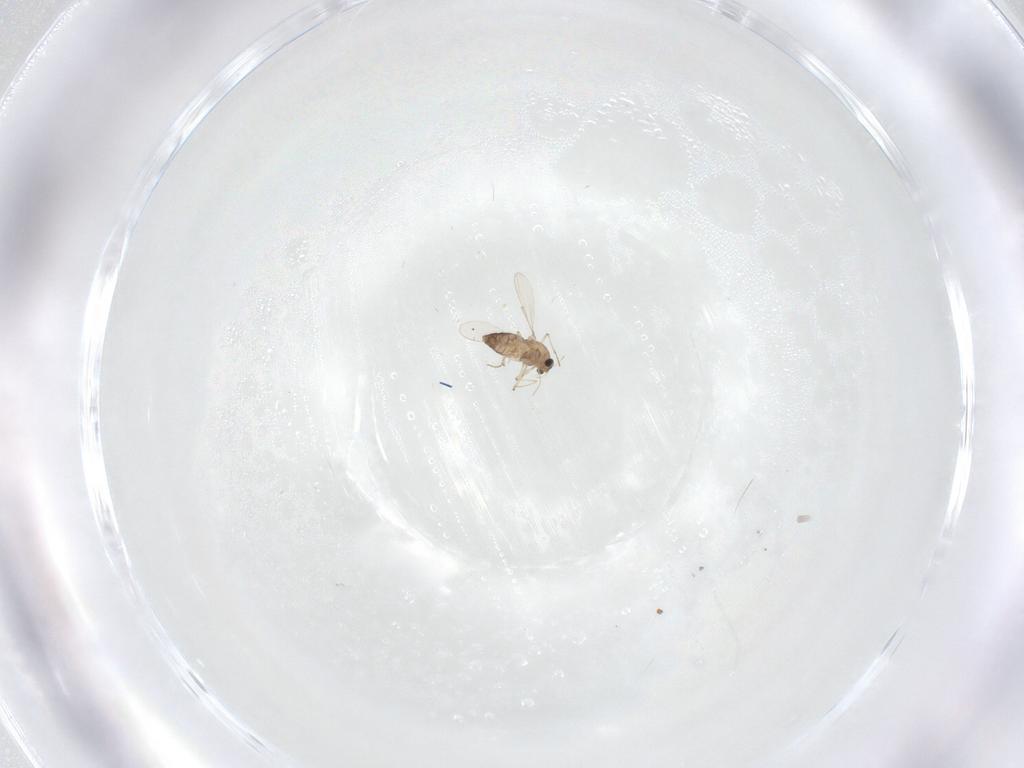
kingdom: Animalia
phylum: Arthropoda
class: Insecta
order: Diptera
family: Chironomidae
